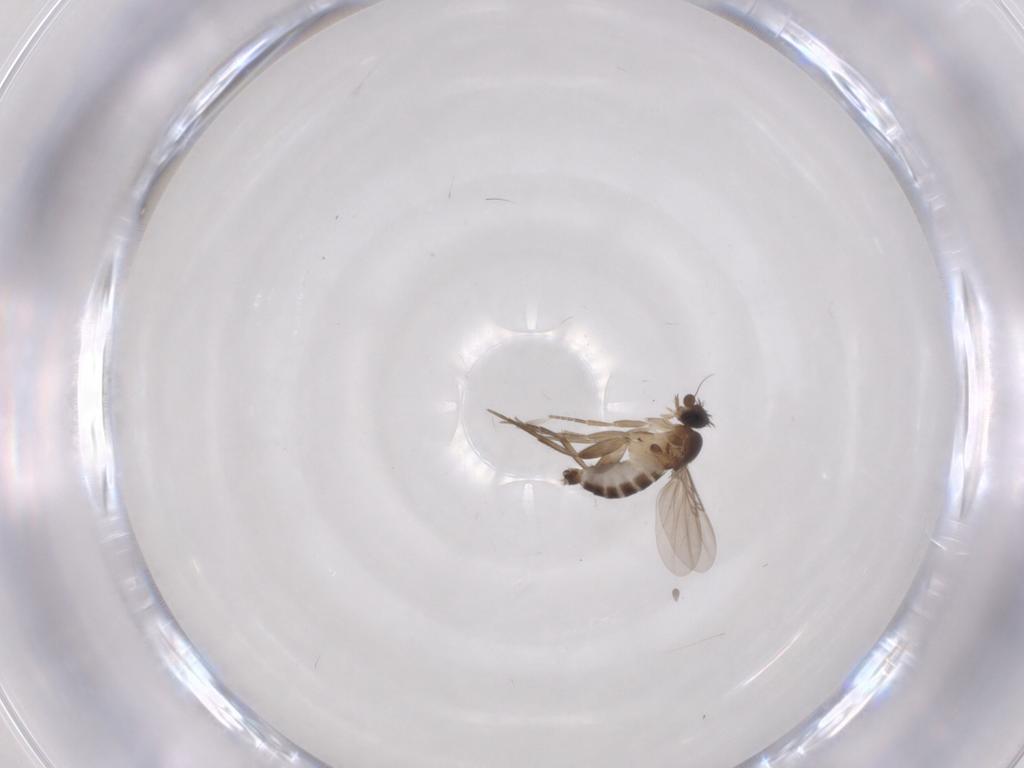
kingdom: Animalia
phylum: Arthropoda
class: Insecta
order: Diptera
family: Phoridae
